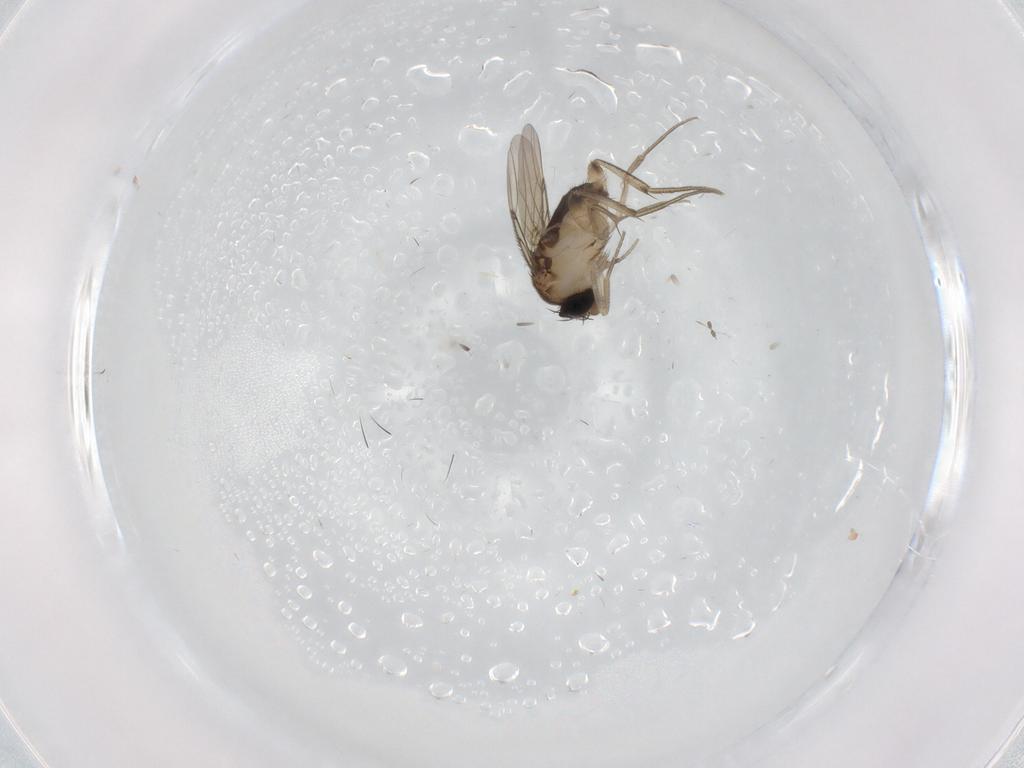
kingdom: Animalia
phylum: Arthropoda
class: Insecta
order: Diptera
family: Phoridae
